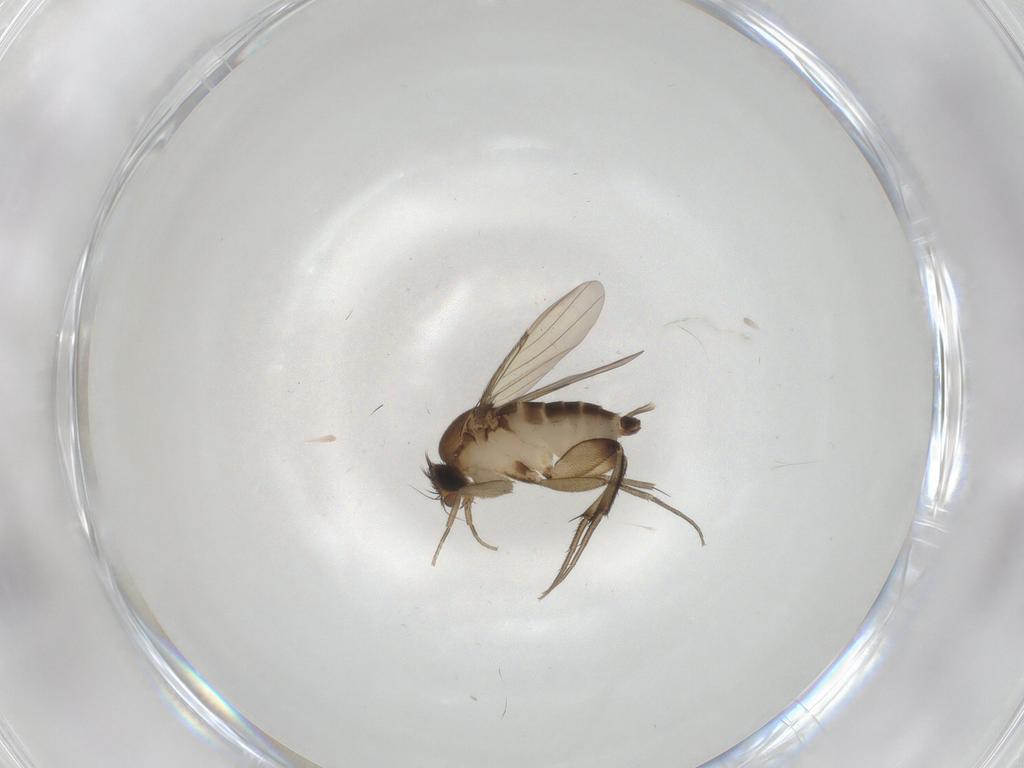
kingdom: Animalia
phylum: Arthropoda
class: Insecta
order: Diptera
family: Phoridae
